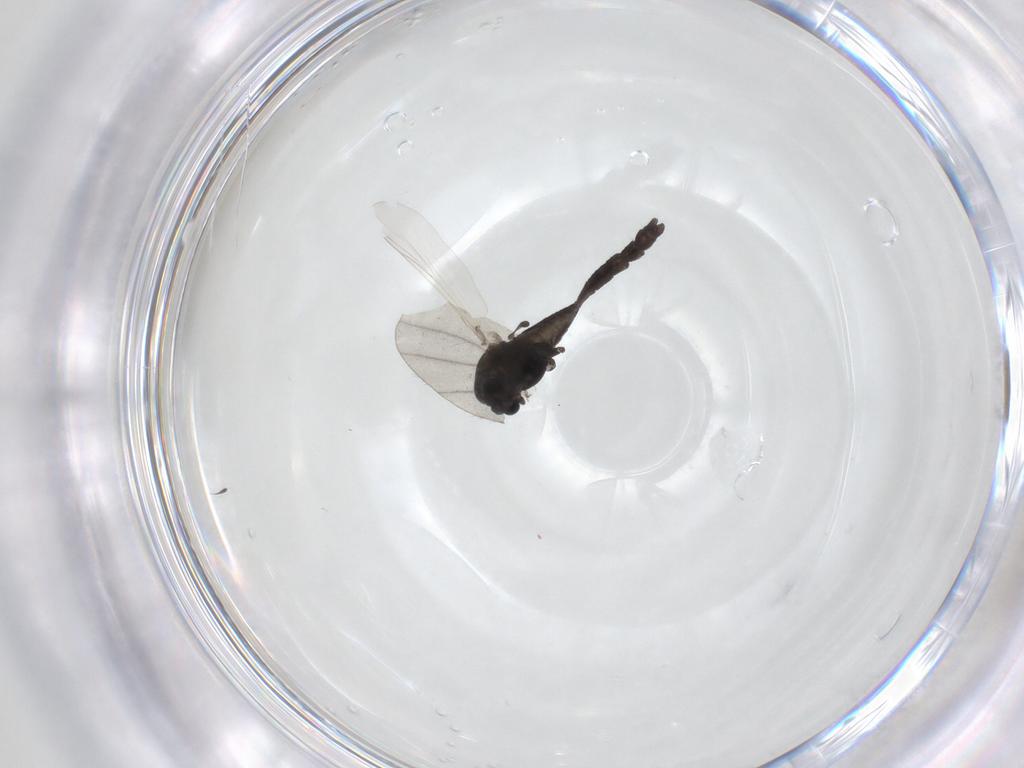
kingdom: Animalia
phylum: Arthropoda
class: Insecta
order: Diptera
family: Chironomidae
